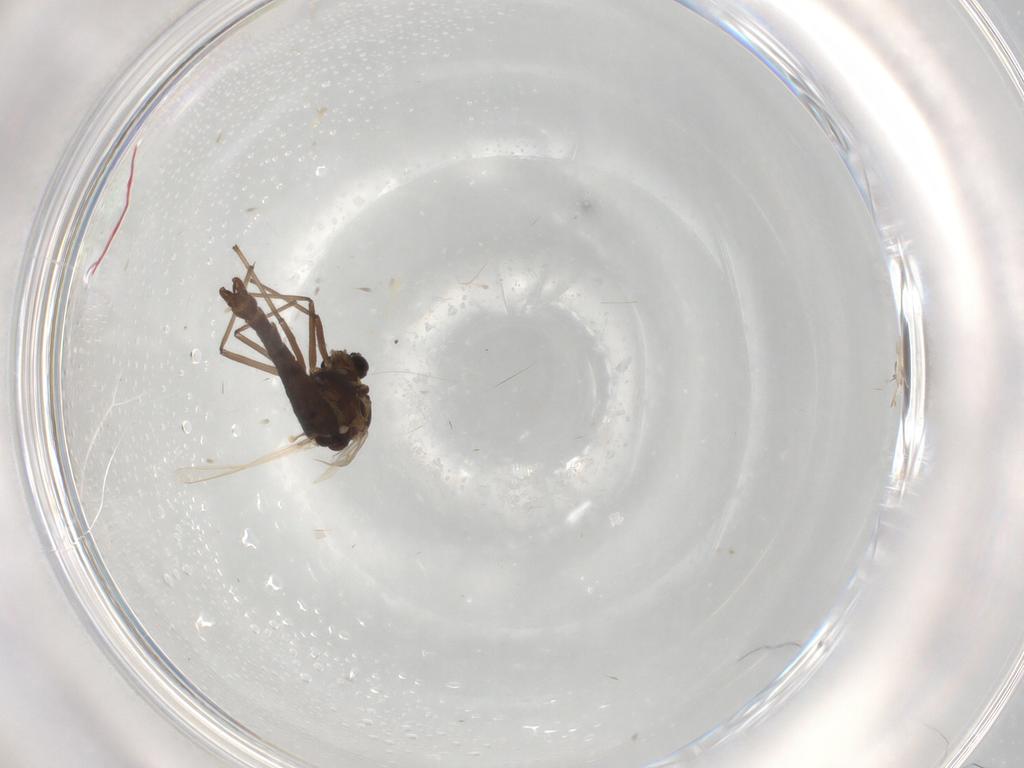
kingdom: Animalia
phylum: Arthropoda
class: Insecta
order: Diptera
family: Chironomidae
